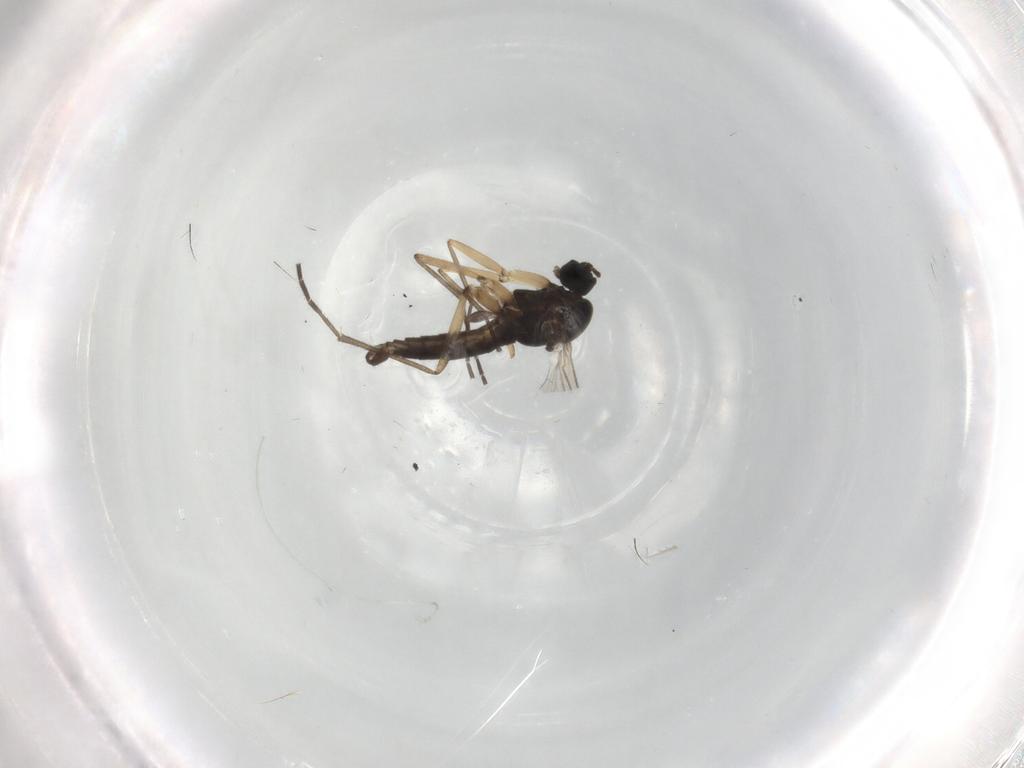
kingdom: Animalia
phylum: Arthropoda
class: Insecta
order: Diptera
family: Sciaridae
